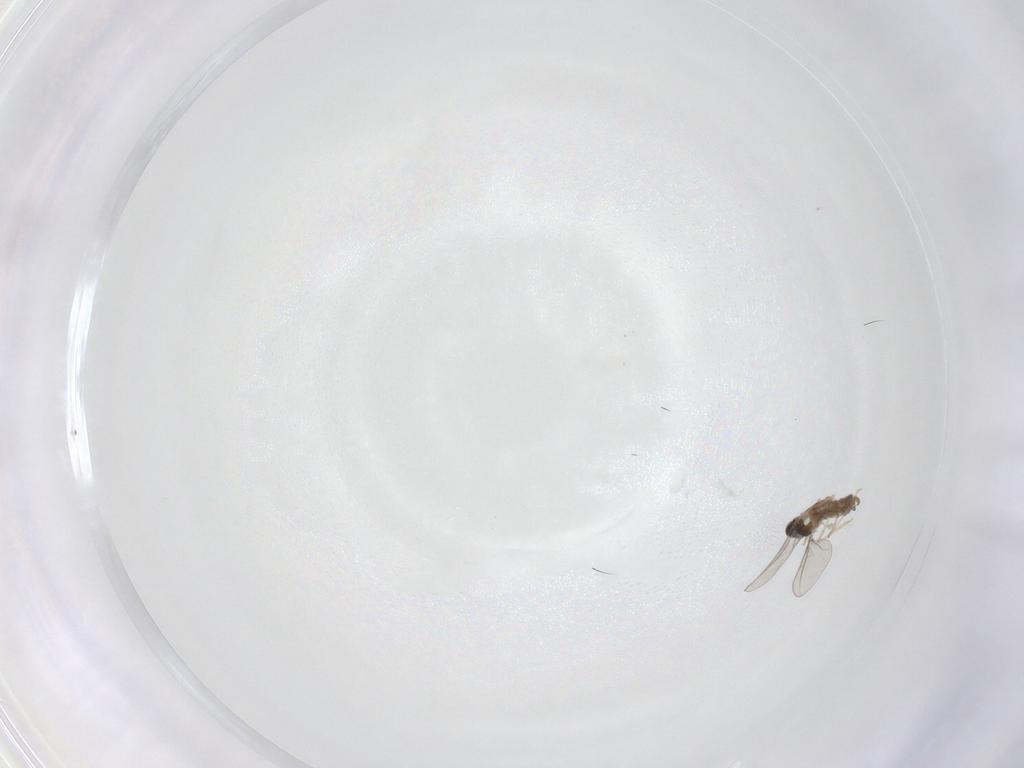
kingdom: Animalia
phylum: Arthropoda
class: Insecta
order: Diptera
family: Cecidomyiidae
